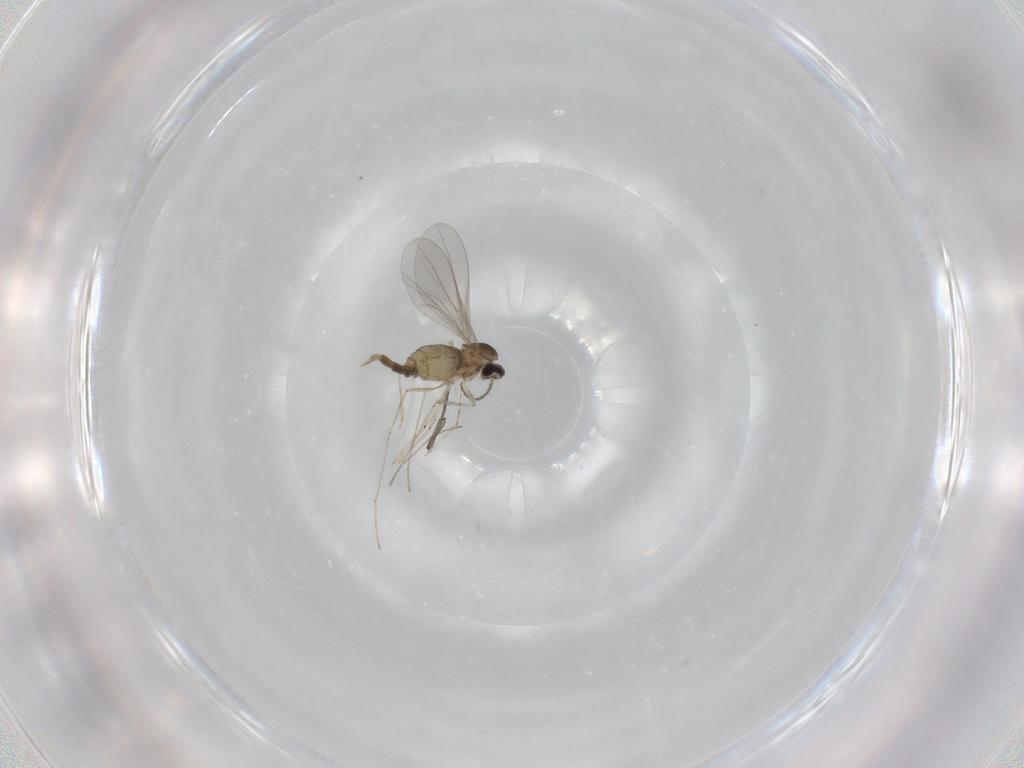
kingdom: Animalia
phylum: Arthropoda
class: Insecta
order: Diptera
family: Cecidomyiidae
